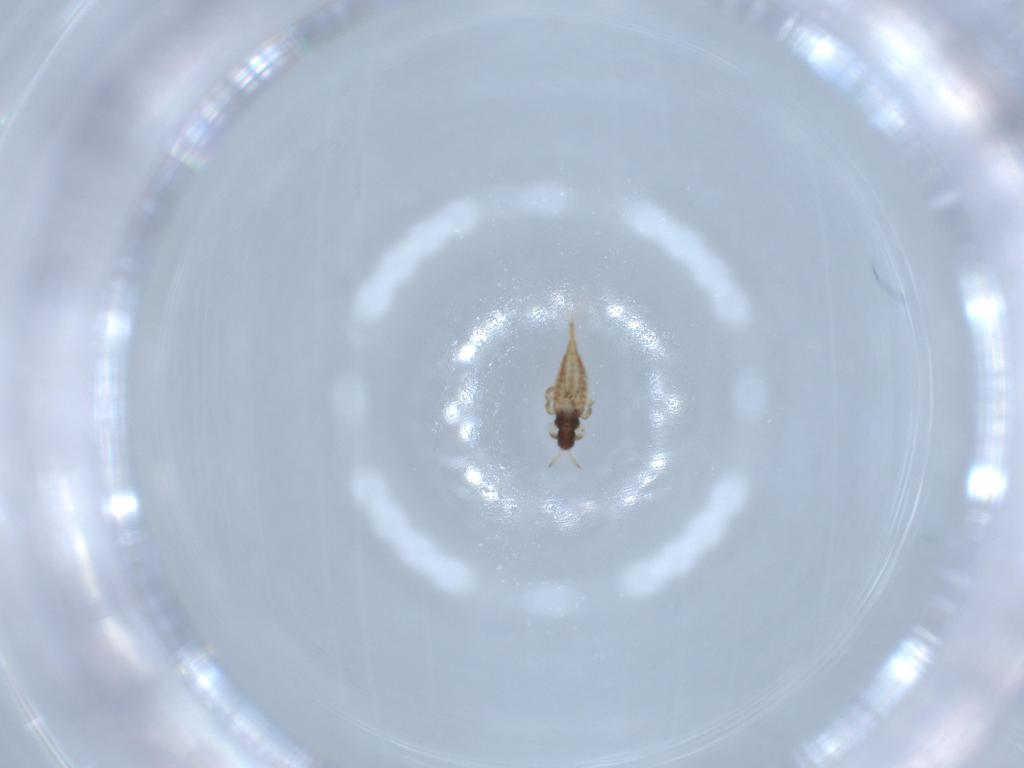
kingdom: Animalia
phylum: Arthropoda
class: Insecta
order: Thysanoptera
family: Phlaeothripidae
